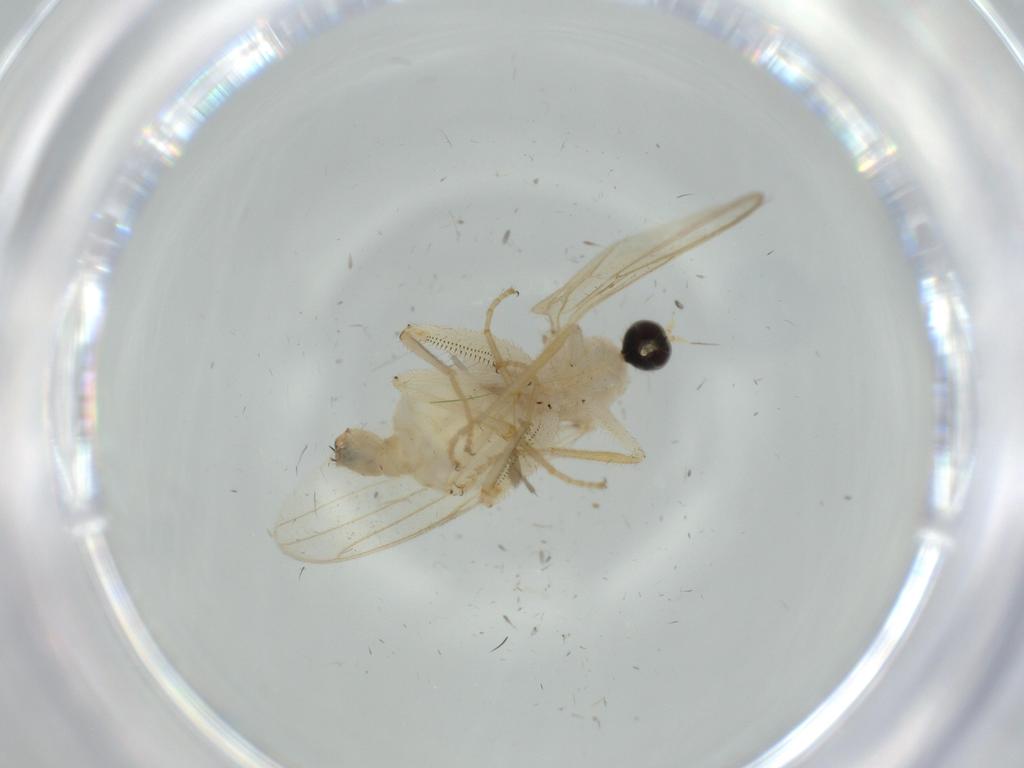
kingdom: Animalia
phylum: Arthropoda
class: Insecta
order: Diptera
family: Hybotidae
